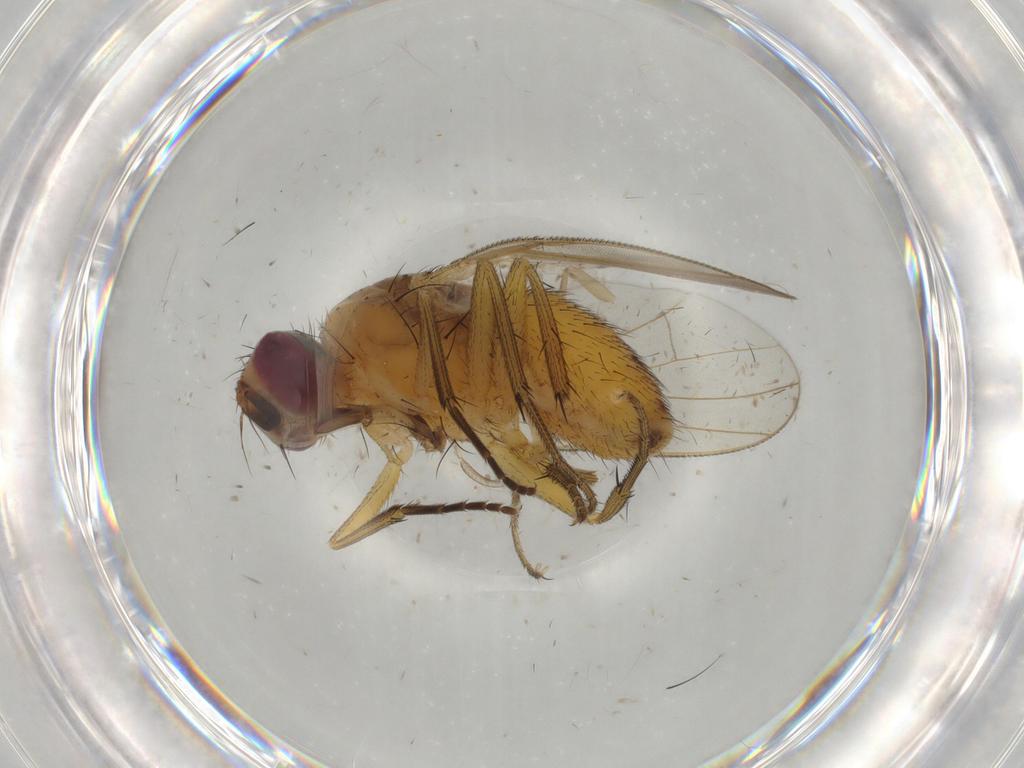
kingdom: Animalia
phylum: Arthropoda
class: Insecta
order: Diptera
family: Muscidae
